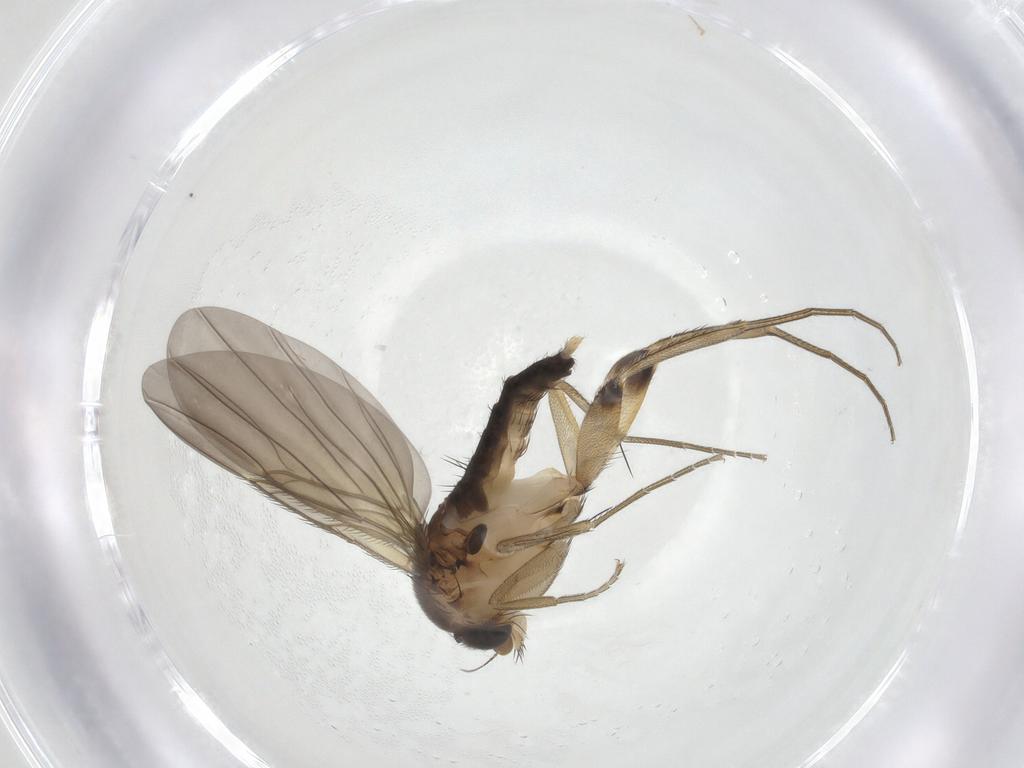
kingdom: Animalia
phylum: Arthropoda
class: Insecta
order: Diptera
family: Phoridae
